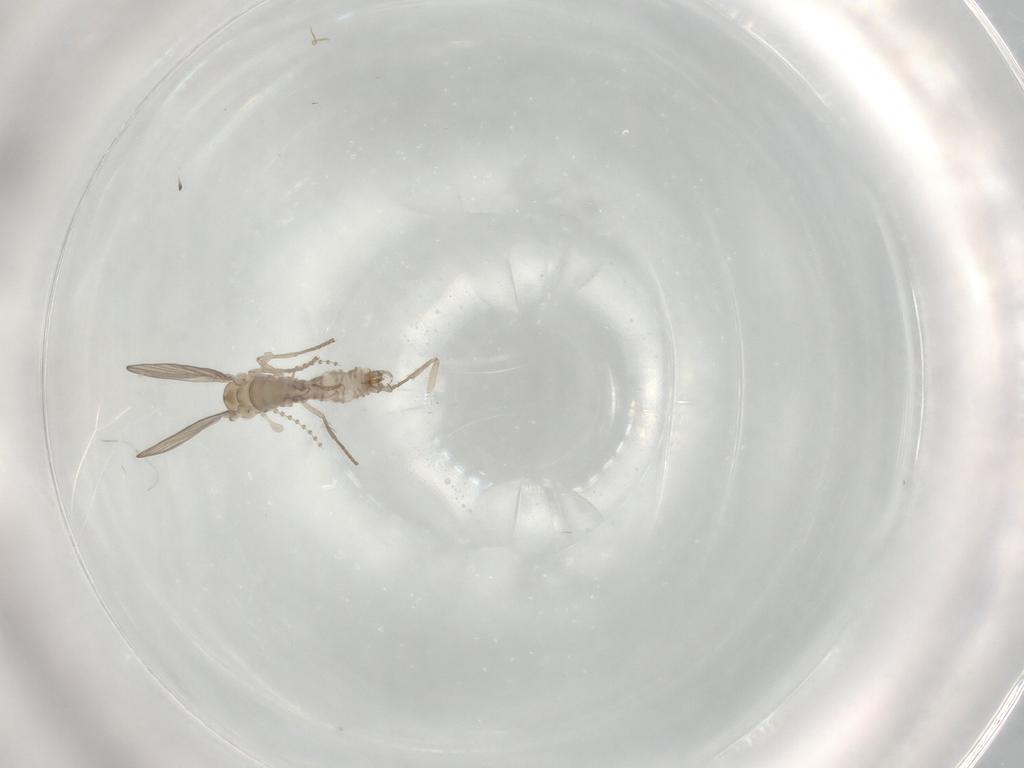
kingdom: Animalia
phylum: Arthropoda
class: Insecta
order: Diptera
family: Psychodidae
